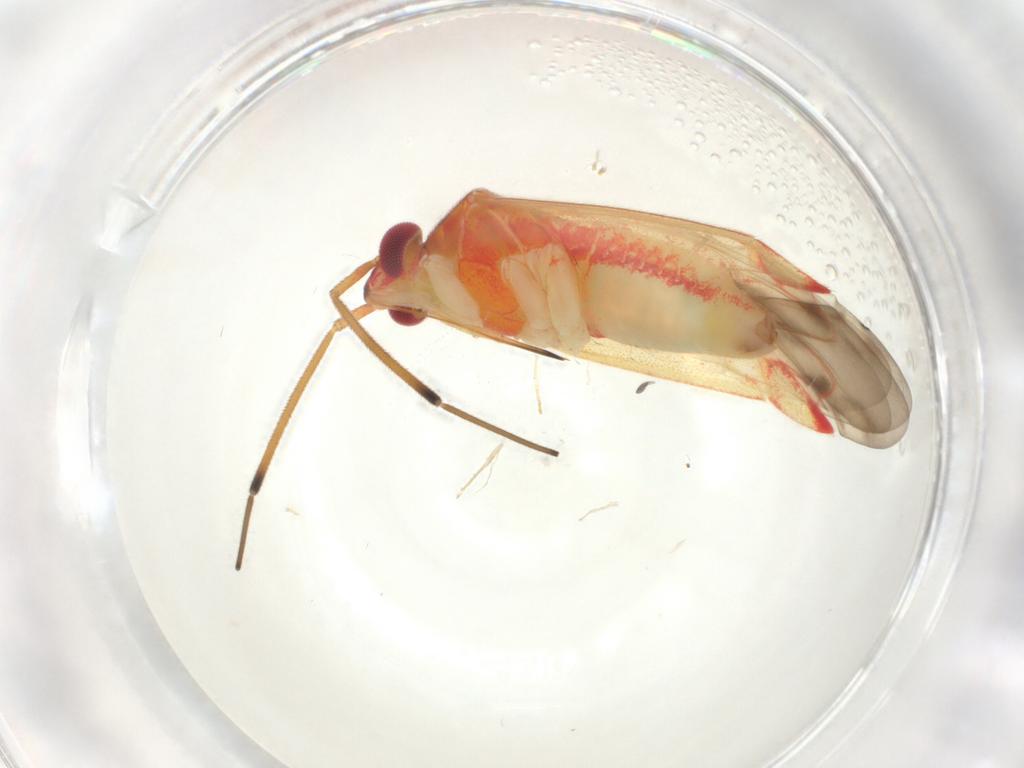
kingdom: Animalia
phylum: Arthropoda
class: Insecta
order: Hemiptera
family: Miridae
